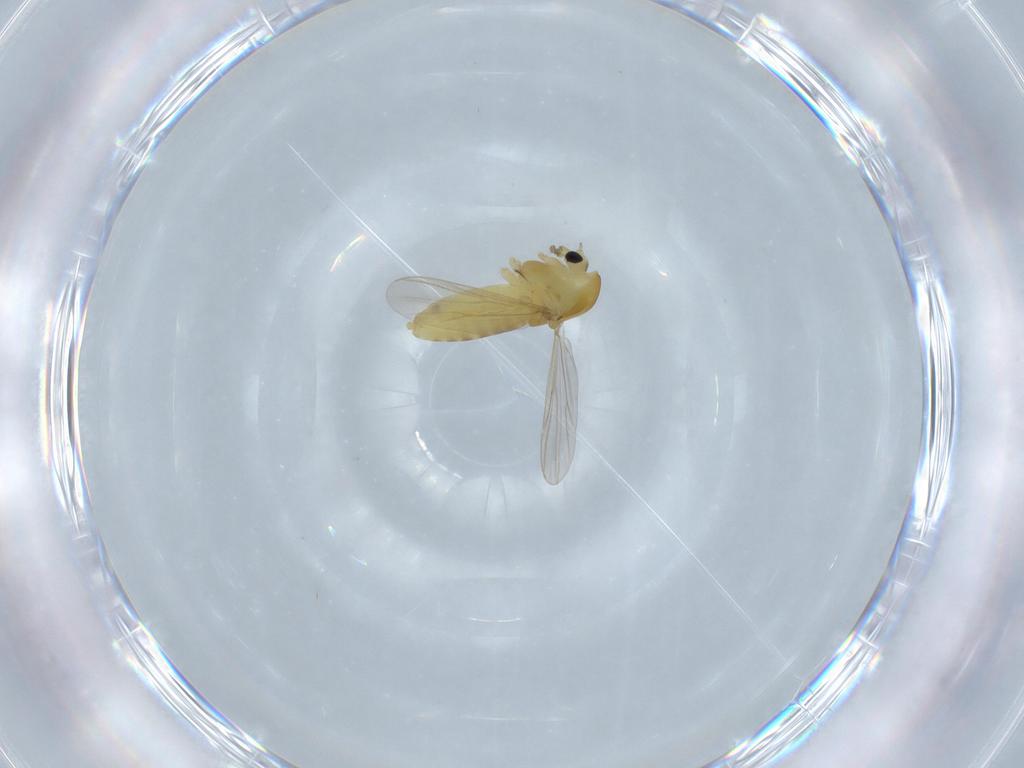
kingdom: Animalia
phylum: Arthropoda
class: Insecta
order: Diptera
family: Chironomidae
